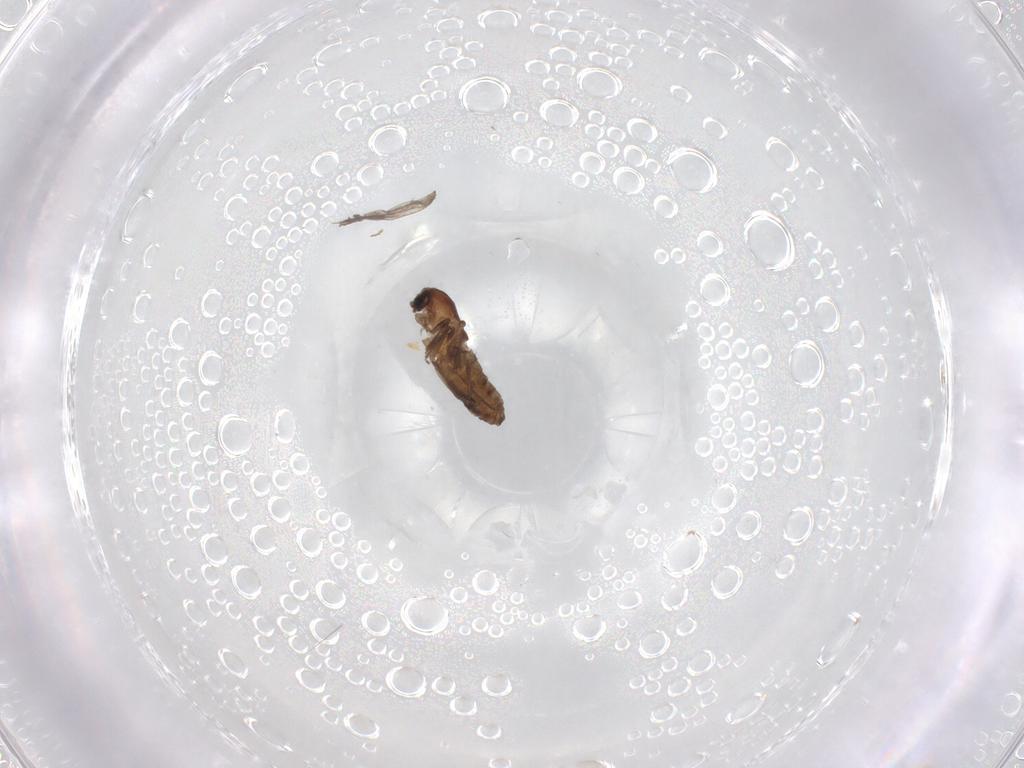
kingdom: Animalia
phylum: Arthropoda
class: Insecta
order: Diptera
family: Chironomidae
